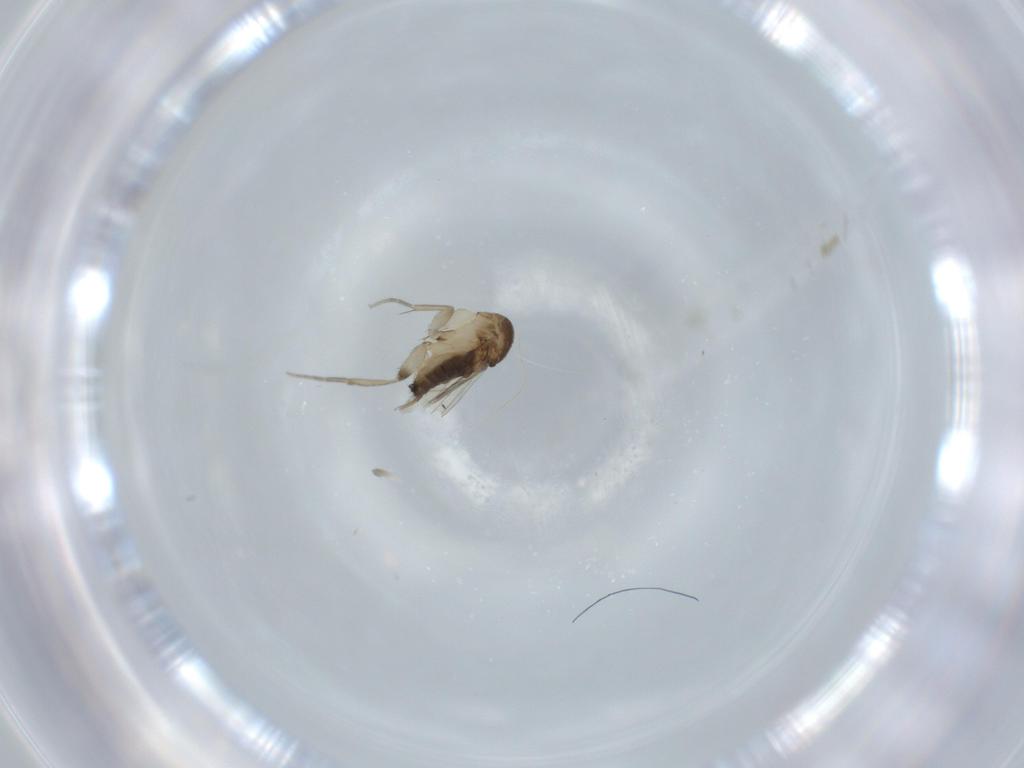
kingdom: Animalia
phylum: Arthropoda
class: Insecta
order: Diptera
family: Phoridae
